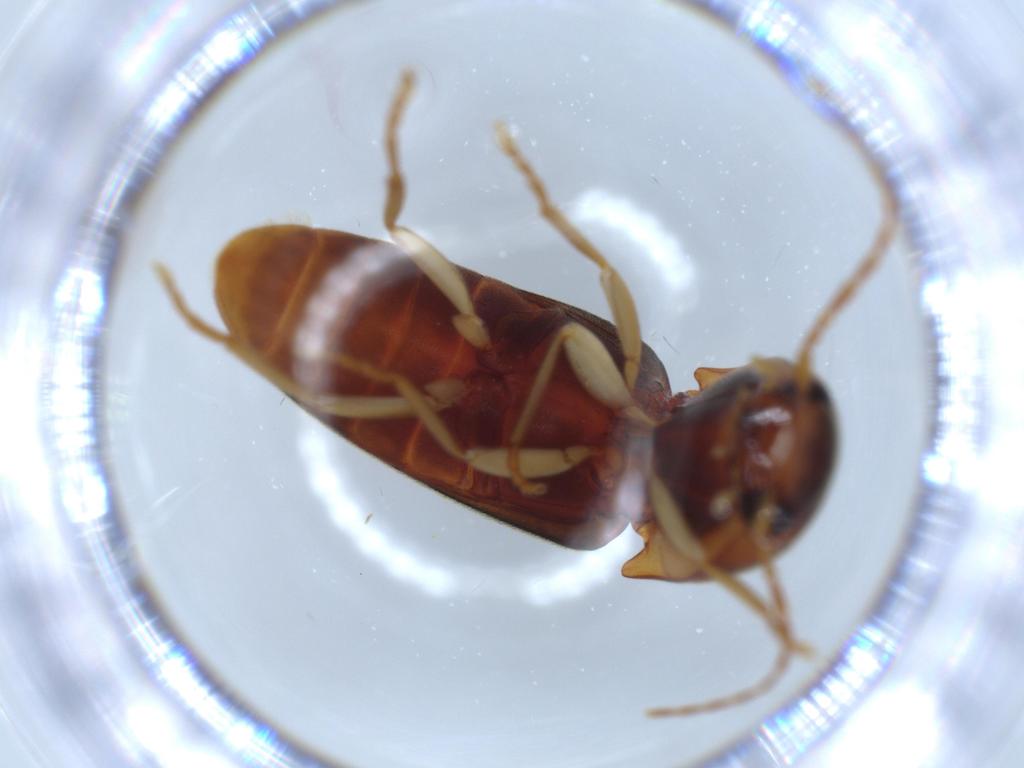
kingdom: Animalia
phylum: Arthropoda
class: Insecta
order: Coleoptera
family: Elateridae
